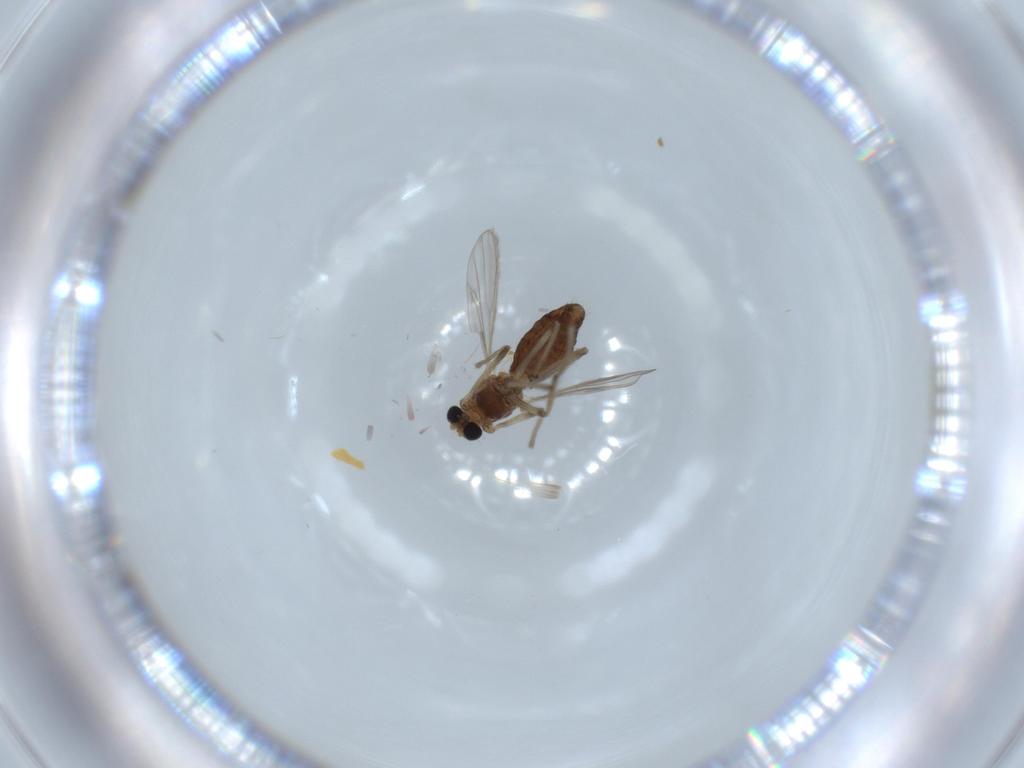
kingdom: Animalia
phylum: Arthropoda
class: Insecta
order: Diptera
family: Chironomidae
